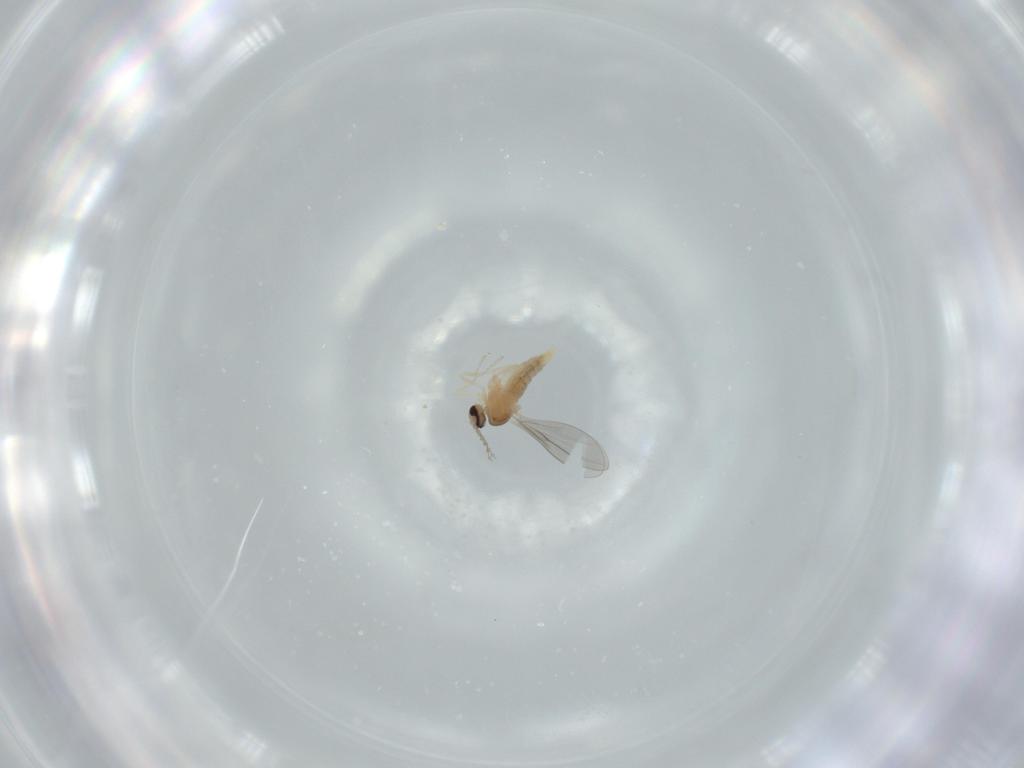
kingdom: Animalia
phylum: Arthropoda
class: Insecta
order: Diptera
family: Cecidomyiidae
